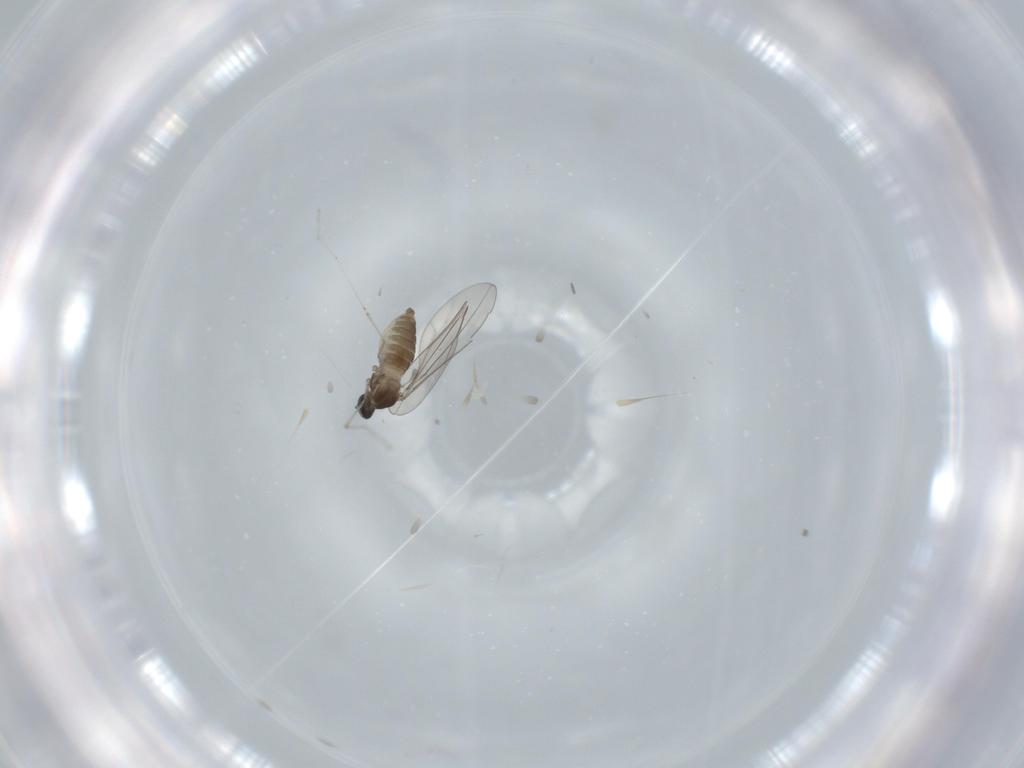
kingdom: Animalia
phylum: Arthropoda
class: Insecta
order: Diptera
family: Cecidomyiidae
